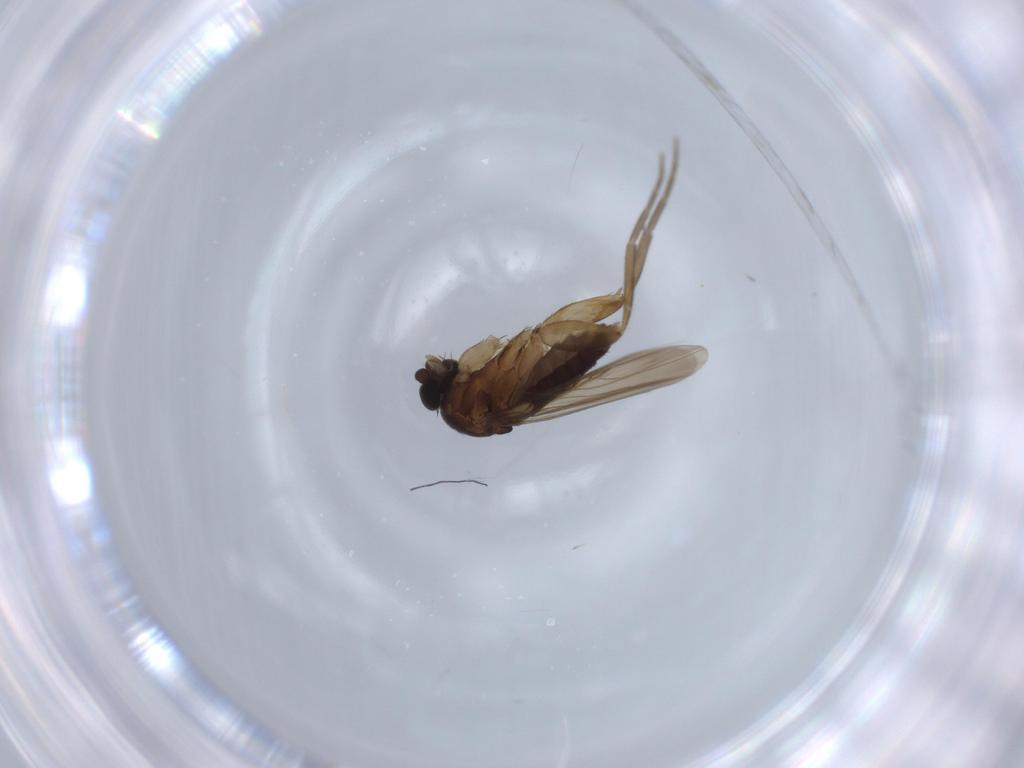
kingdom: Animalia
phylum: Arthropoda
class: Insecta
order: Diptera
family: Phoridae
